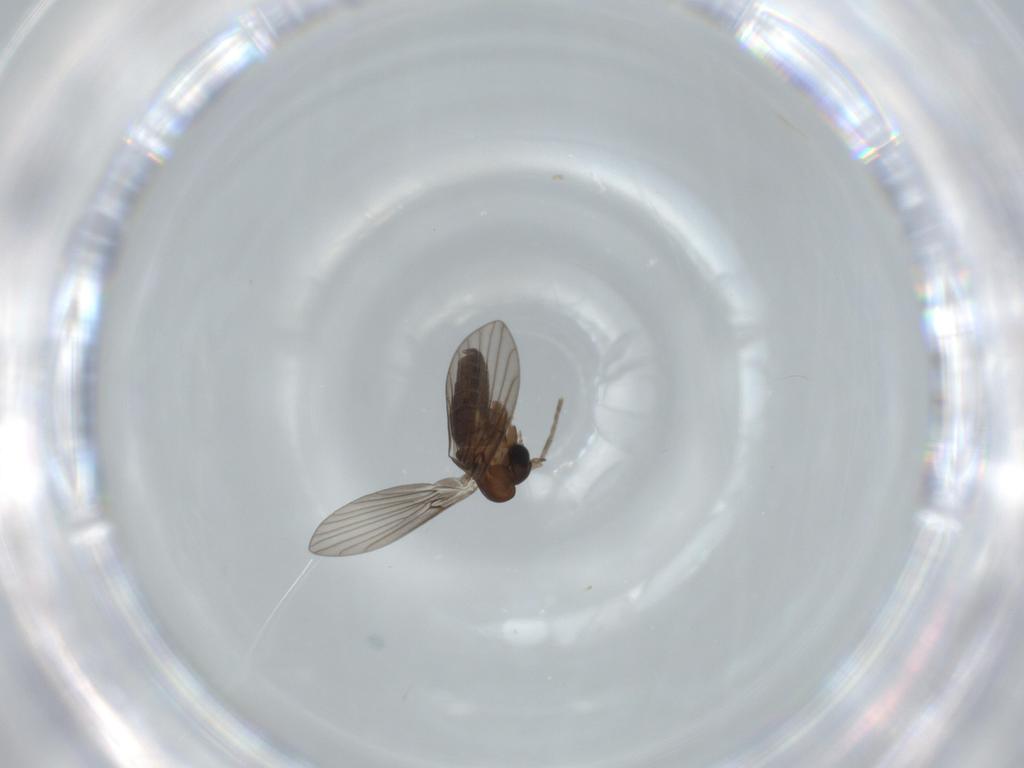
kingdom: Animalia
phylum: Arthropoda
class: Insecta
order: Diptera
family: Psychodidae
